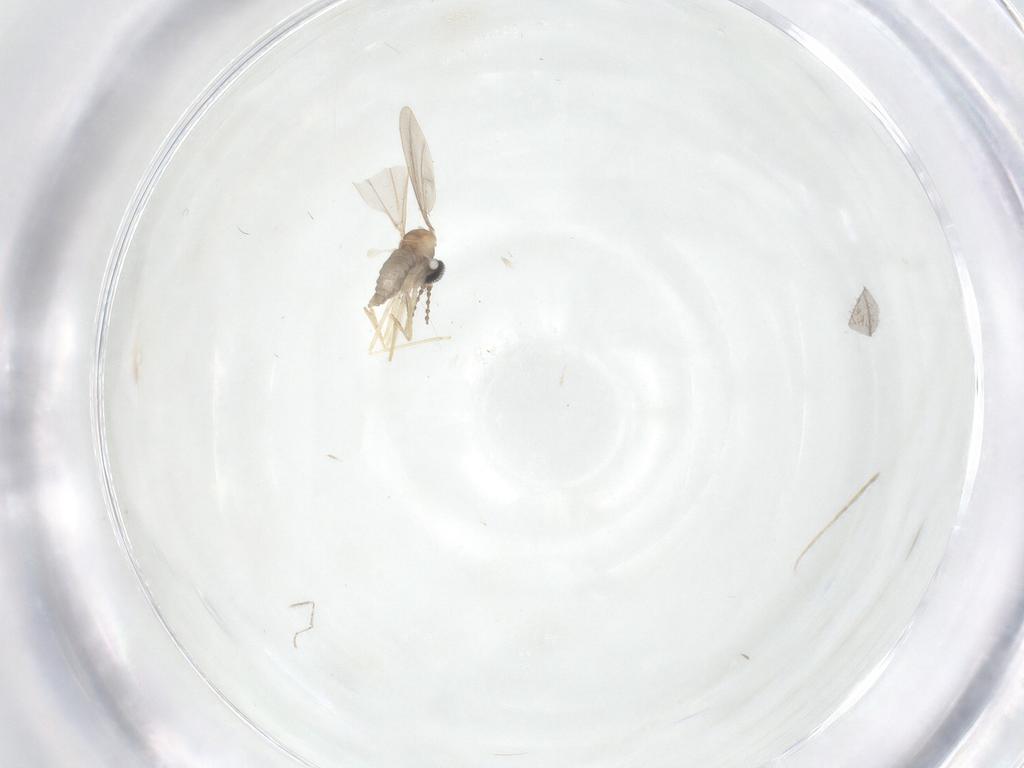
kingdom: Animalia
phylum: Arthropoda
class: Insecta
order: Diptera
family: Cecidomyiidae
